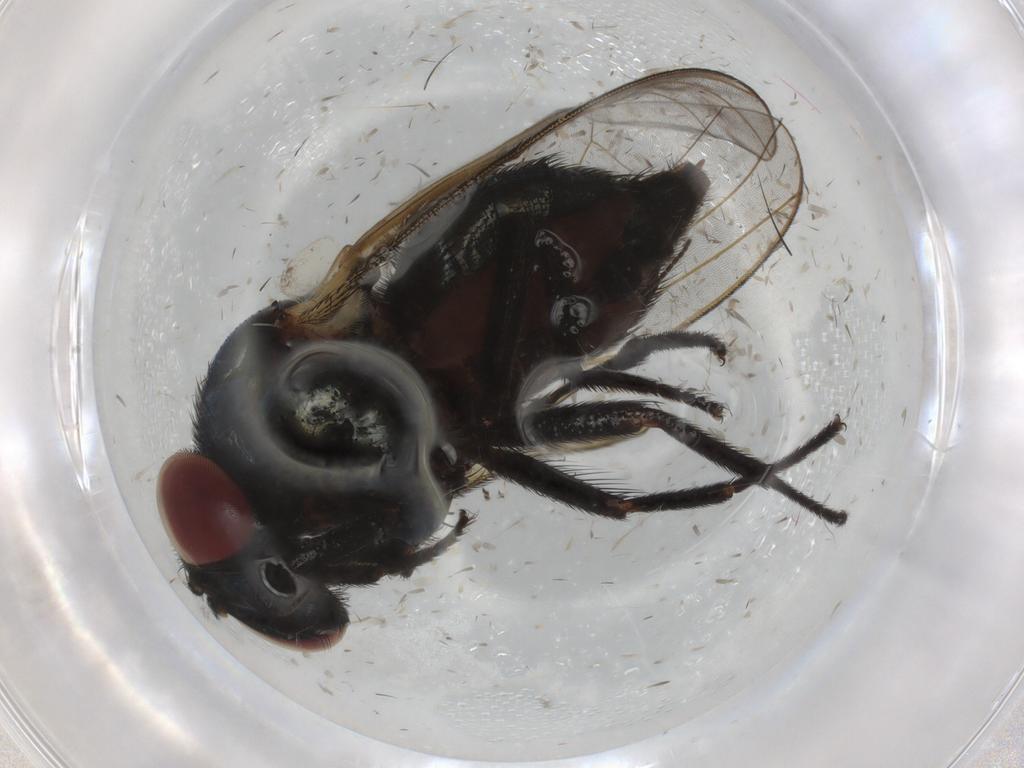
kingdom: Animalia
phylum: Arthropoda
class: Insecta
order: Diptera
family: Lonchaeidae
